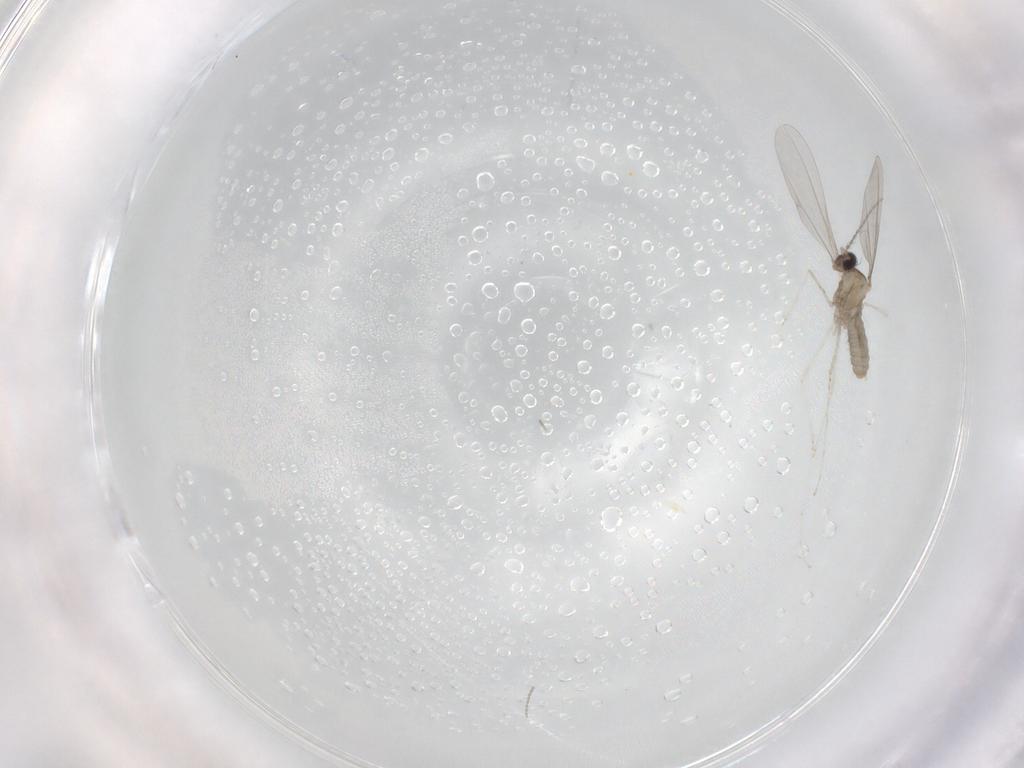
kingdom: Animalia
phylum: Arthropoda
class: Insecta
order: Diptera
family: Cecidomyiidae
